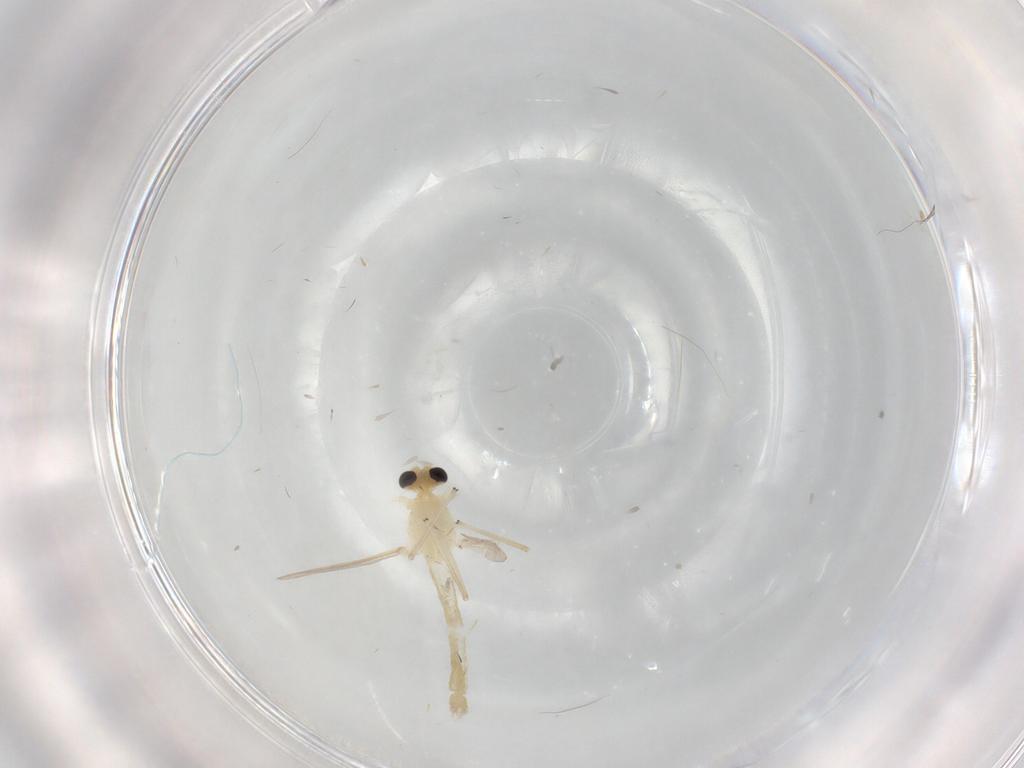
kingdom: Animalia
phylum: Arthropoda
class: Insecta
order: Diptera
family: Chironomidae
